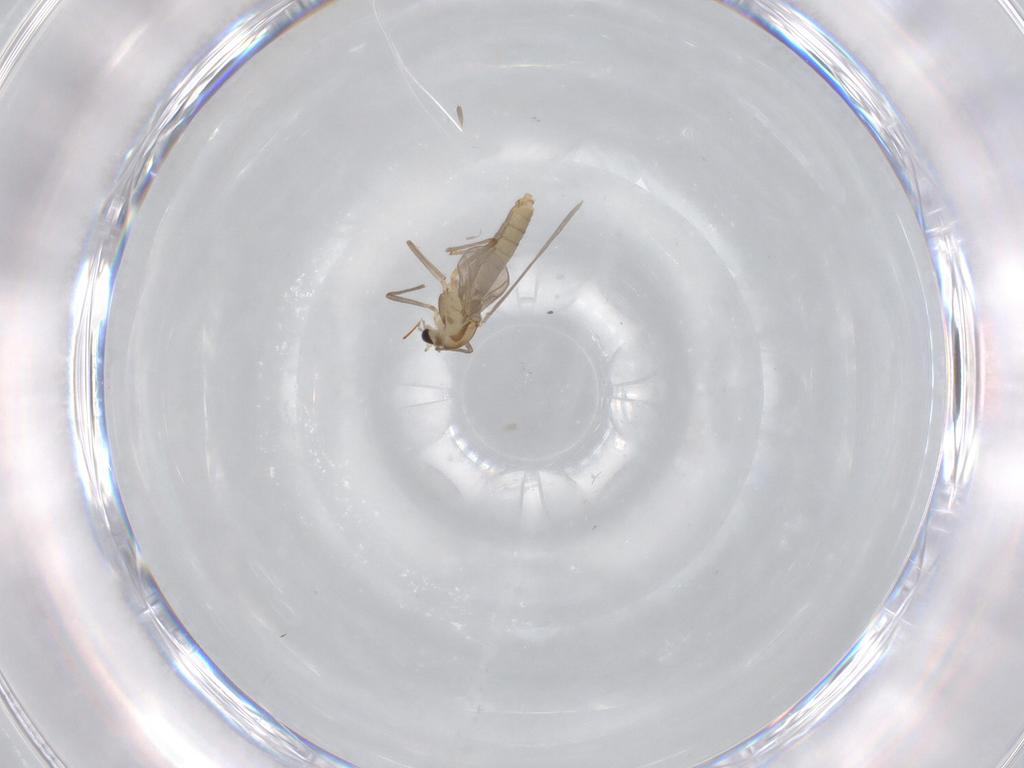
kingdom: Animalia
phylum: Arthropoda
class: Insecta
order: Diptera
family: Chironomidae
